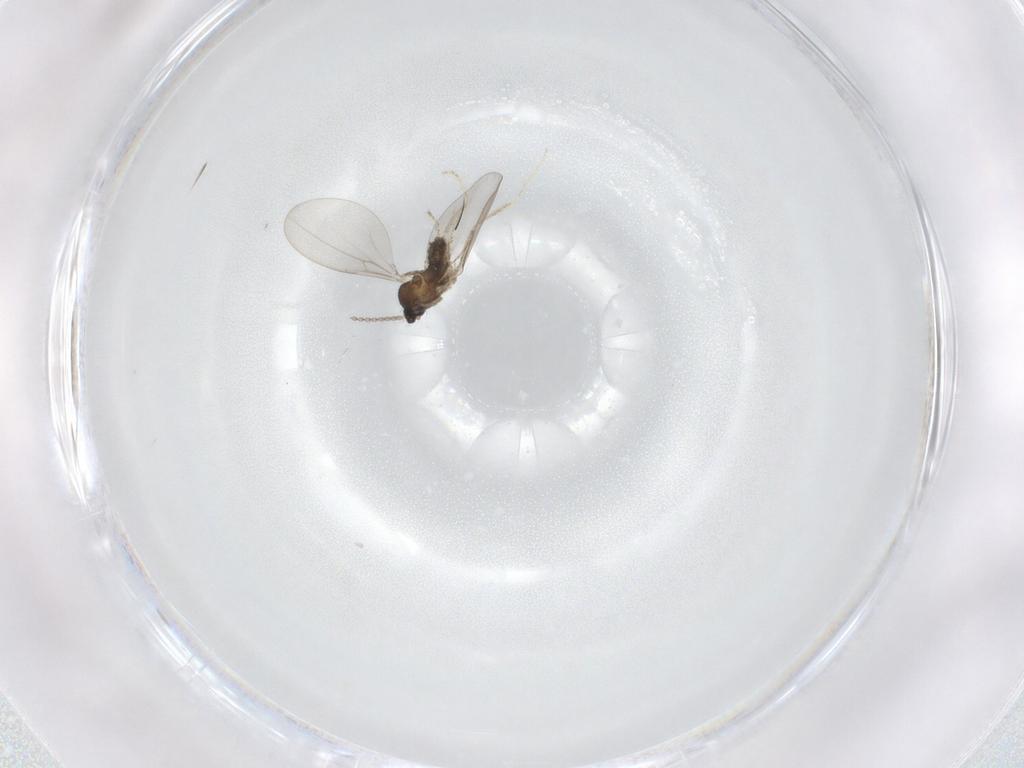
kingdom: Animalia
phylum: Arthropoda
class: Insecta
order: Diptera
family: Cecidomyiidae
